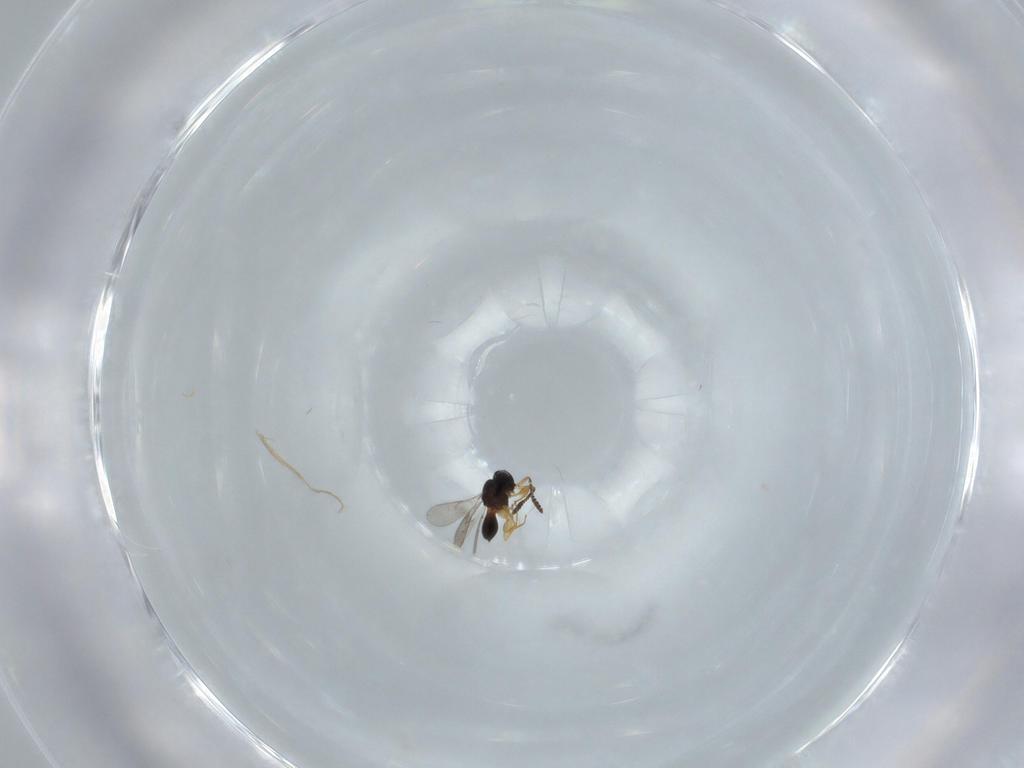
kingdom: Animalia
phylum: Arthropoda
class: Insecta
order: Hymenoptera
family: Scelionidae
